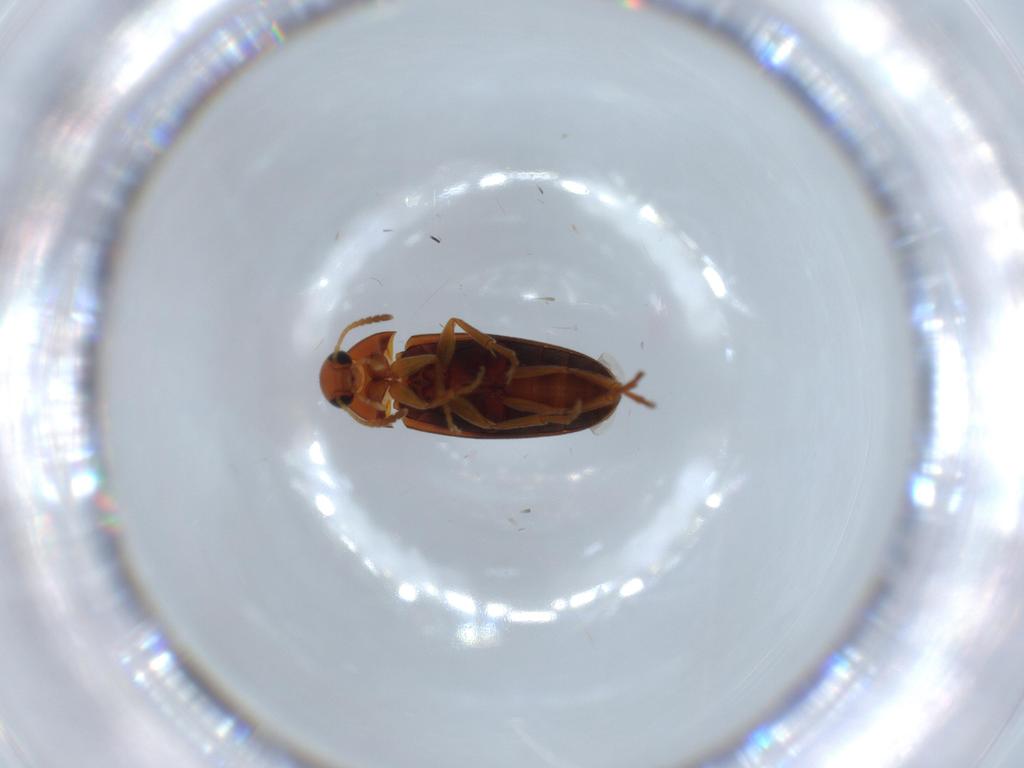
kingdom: Animalia
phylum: Arthropoda
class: Insecta
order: Coleoptera
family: Scraptiidae
